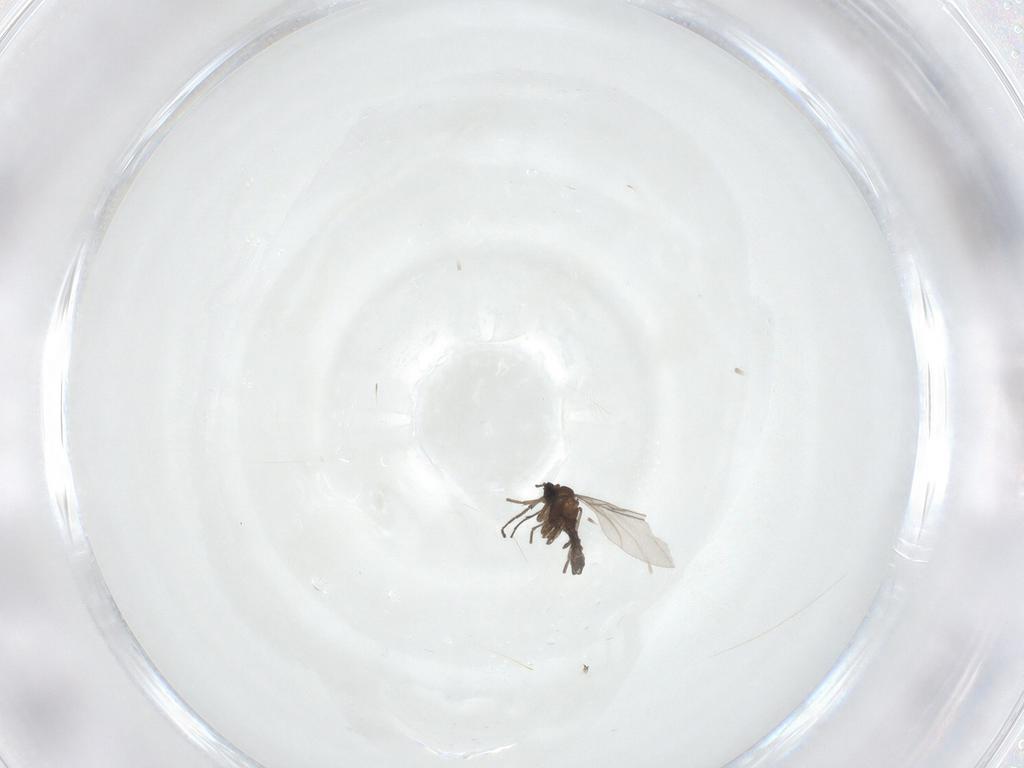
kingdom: Animalia
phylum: Arthropoda
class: Insecta
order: Diptera
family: Sciaridae
